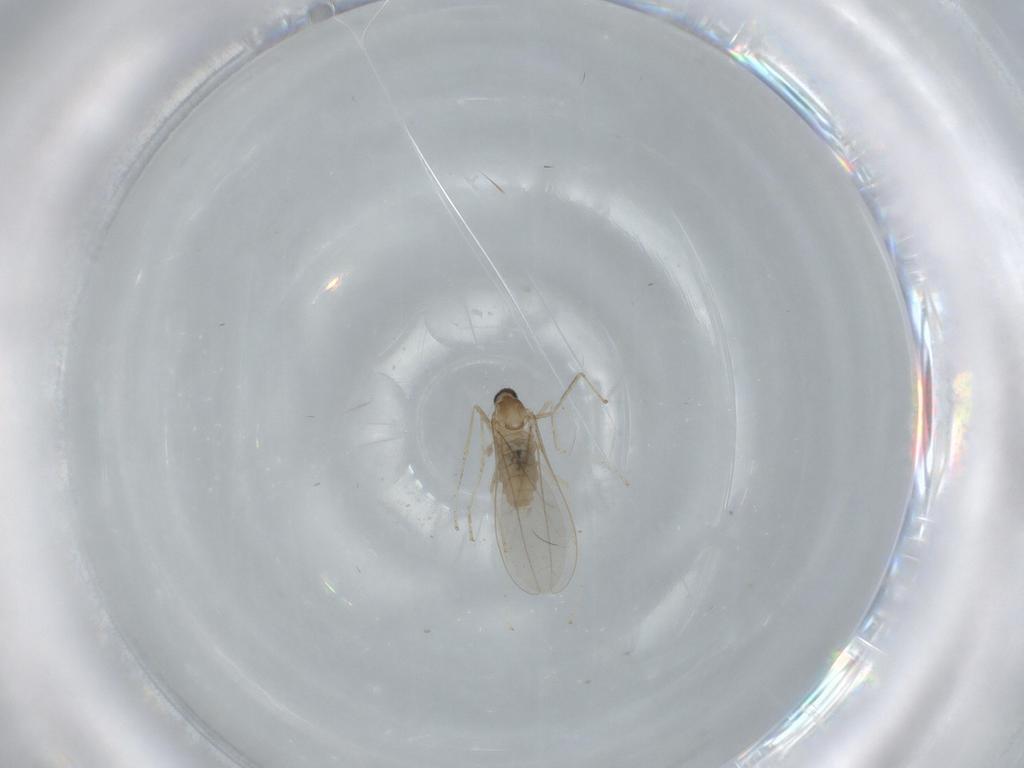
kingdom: Animalia
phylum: Arthropoda
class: Insecta
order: Diptera
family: Cecidomyiidae
